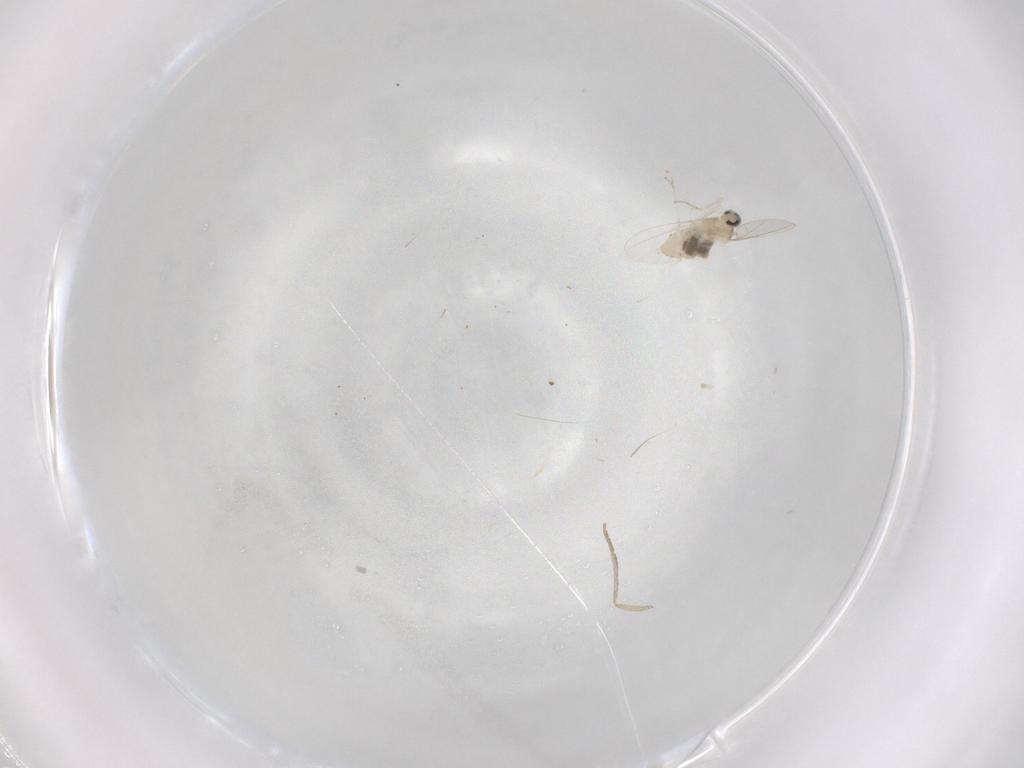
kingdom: Animalia
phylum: Arthropoda
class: Insecta
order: Diptera
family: Cecidomyiidae
